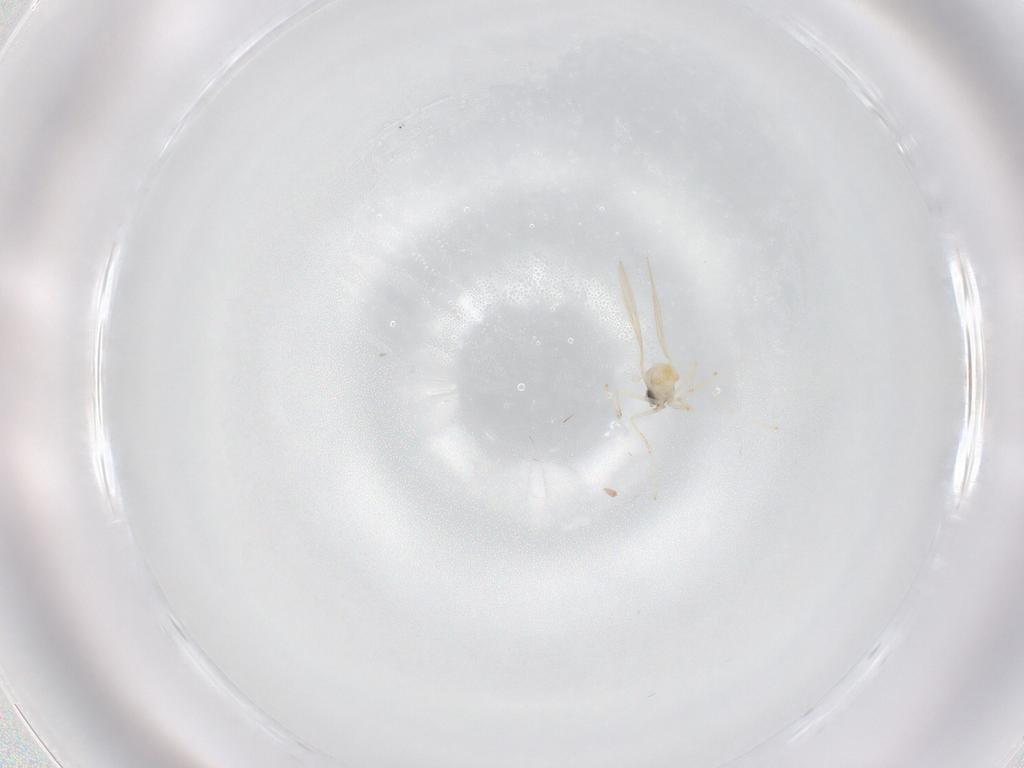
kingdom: Animalia
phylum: Arthropoda
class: Insecta
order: Diptera
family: Cecidomyiidae
